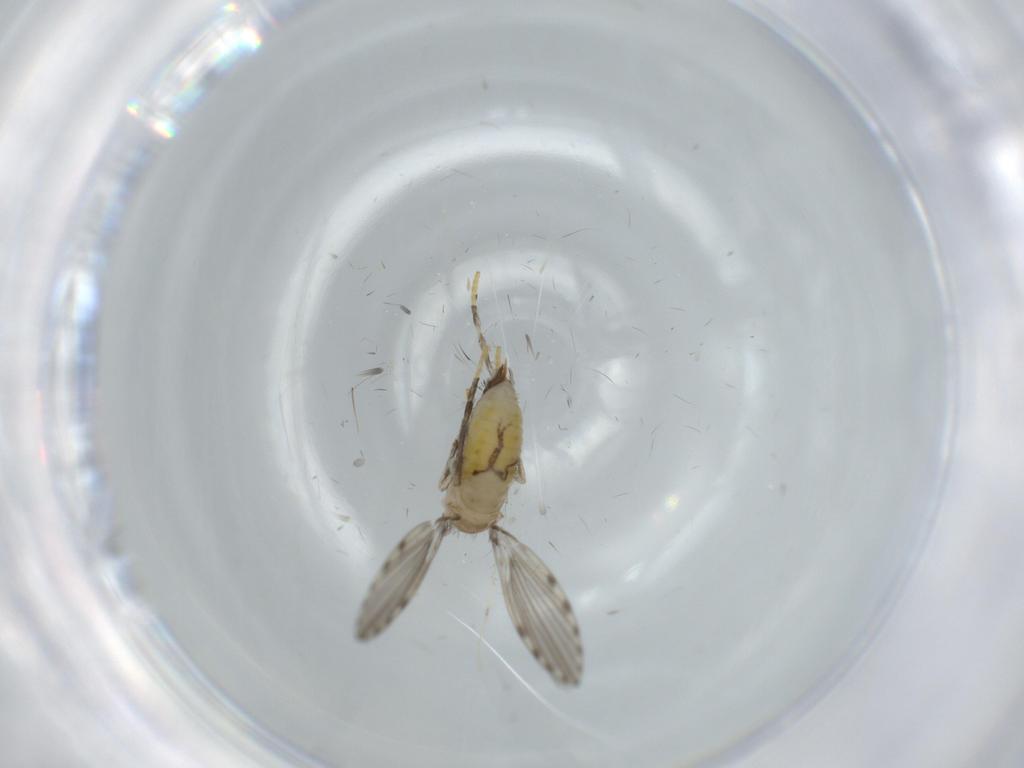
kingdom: Animalia
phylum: Arthropoda
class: Insecta
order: Diptera
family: Psychodidae
